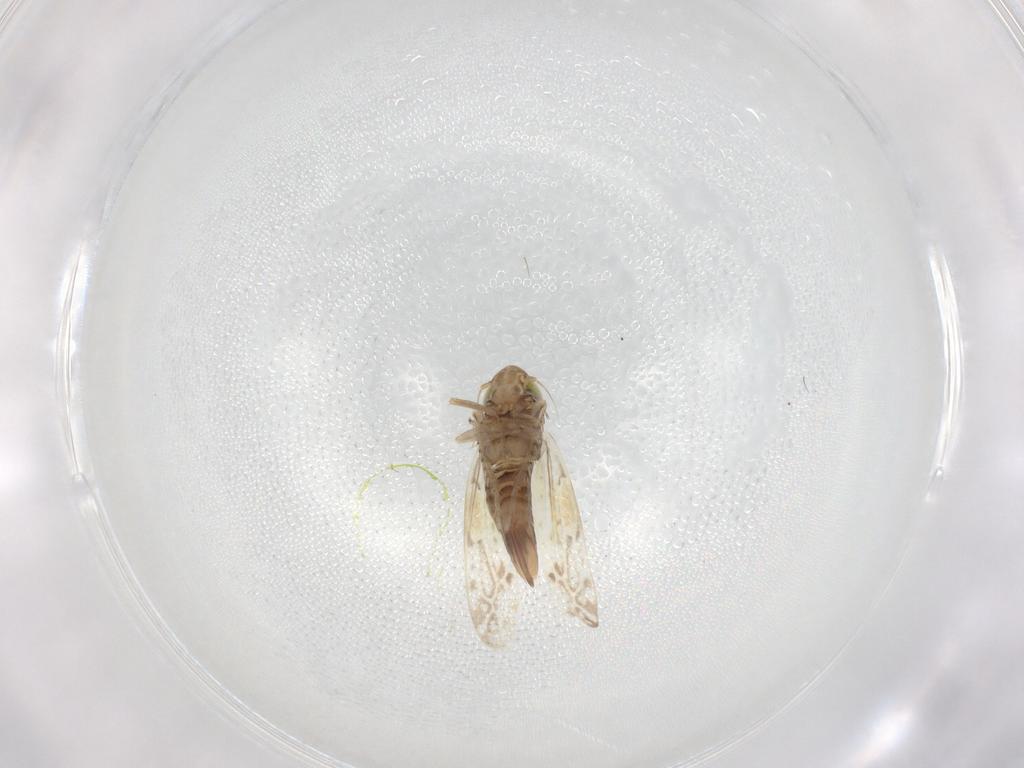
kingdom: Animalia
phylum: Arthropoda
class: Insecta
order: Hemiptera
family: Cicadellidae
